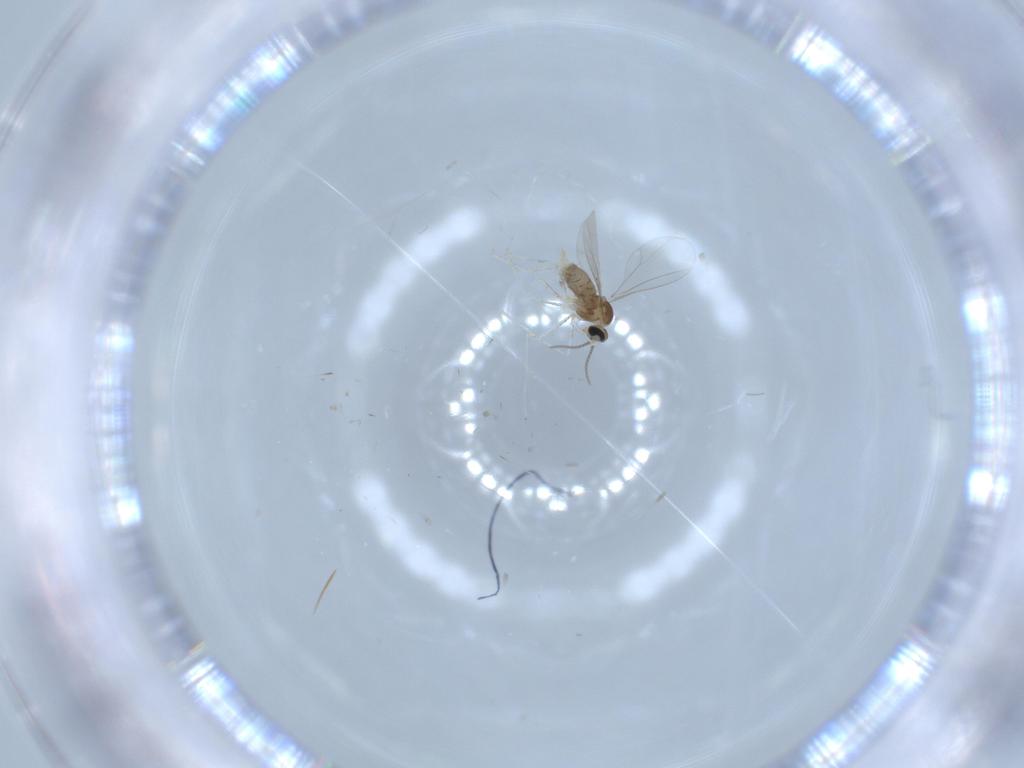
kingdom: Animalia
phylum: Arthropoda
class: Insecta
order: Diptera
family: Cecidomyiidae
